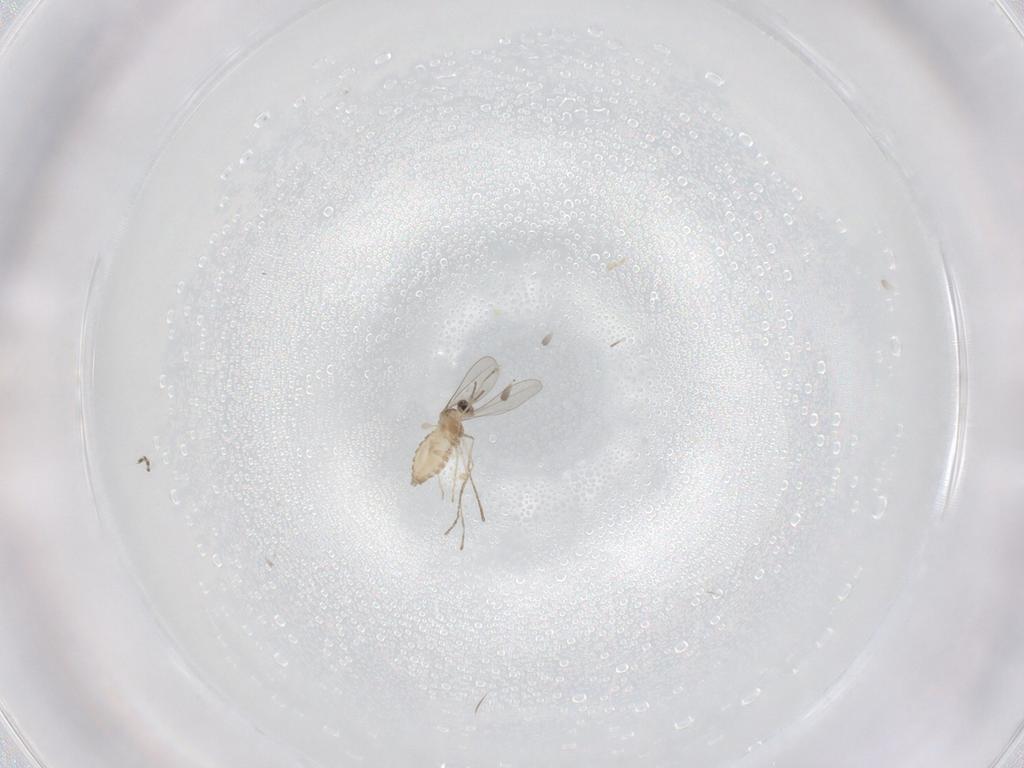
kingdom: Animalia
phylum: Arthropoda
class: Insecta
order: Diptera
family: Cecidomyiidae
